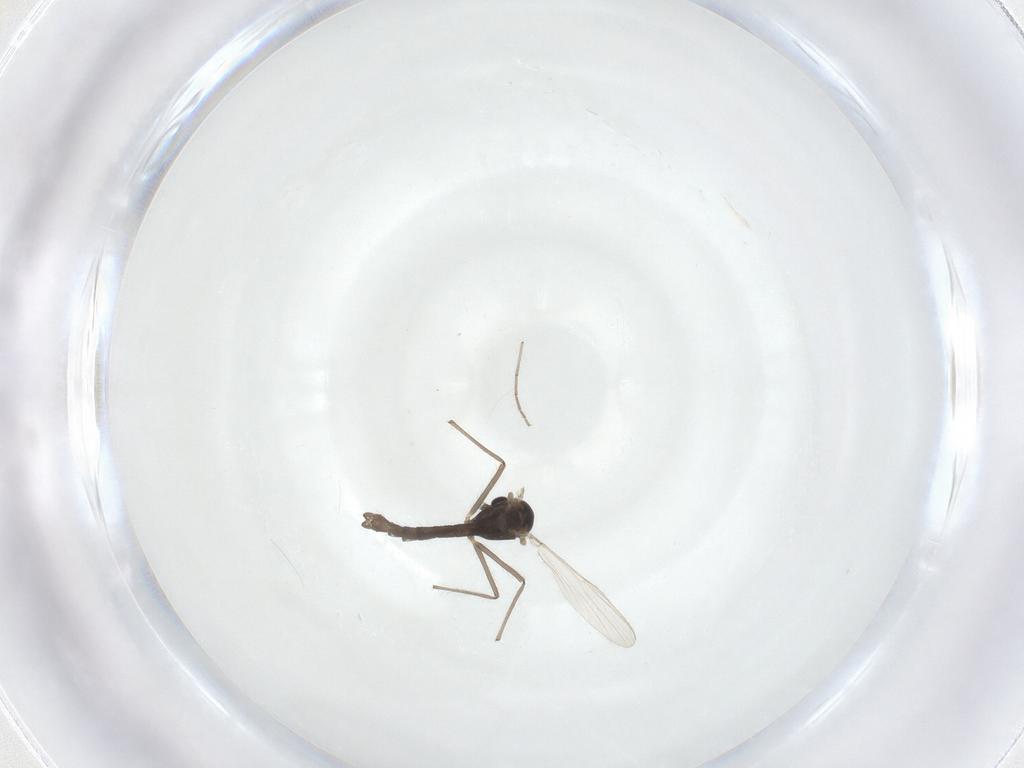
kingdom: Animalia
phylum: Arthropoda
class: Insecta
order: Diptera
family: Chironomidae
